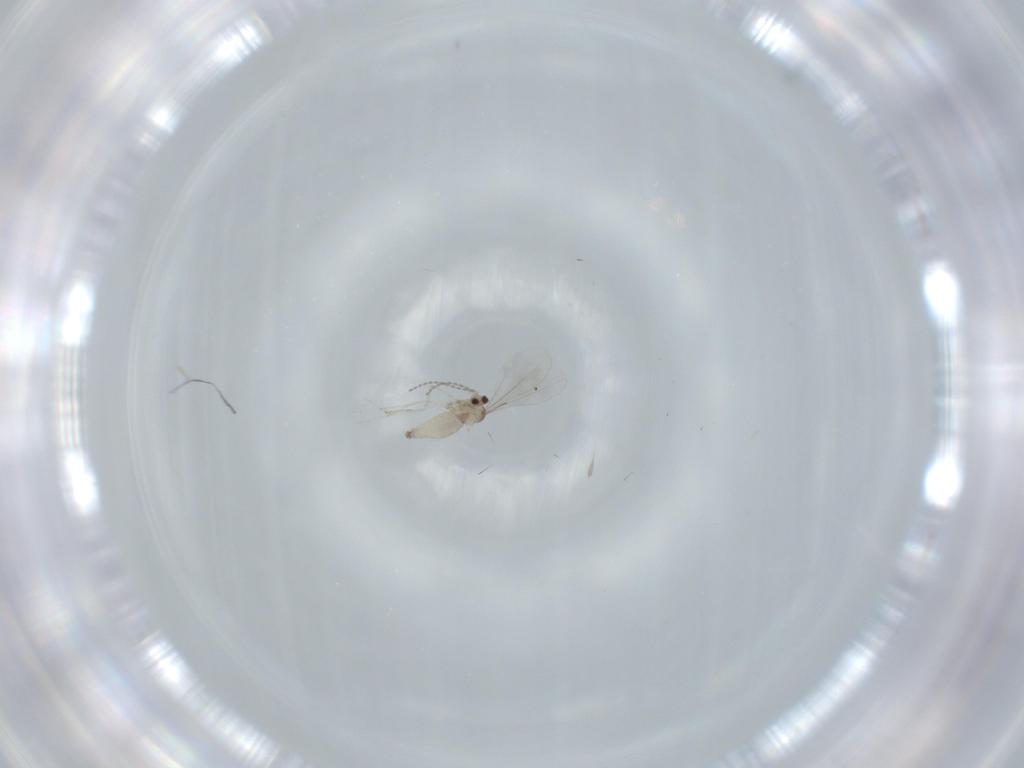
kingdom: Animalia
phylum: Arthropoda
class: Insecta
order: Diptera
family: Cecidomyiidae
